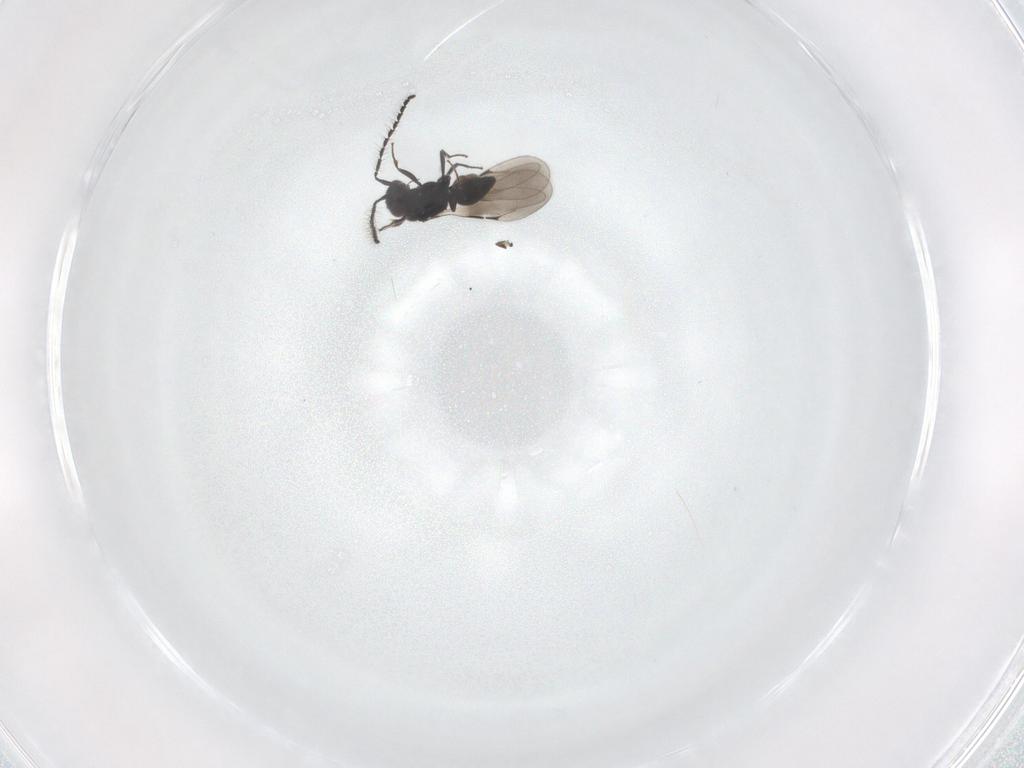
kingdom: Animalia
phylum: Arthropoda
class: Insecta
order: Hymenoptera
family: Ceraphronidae
